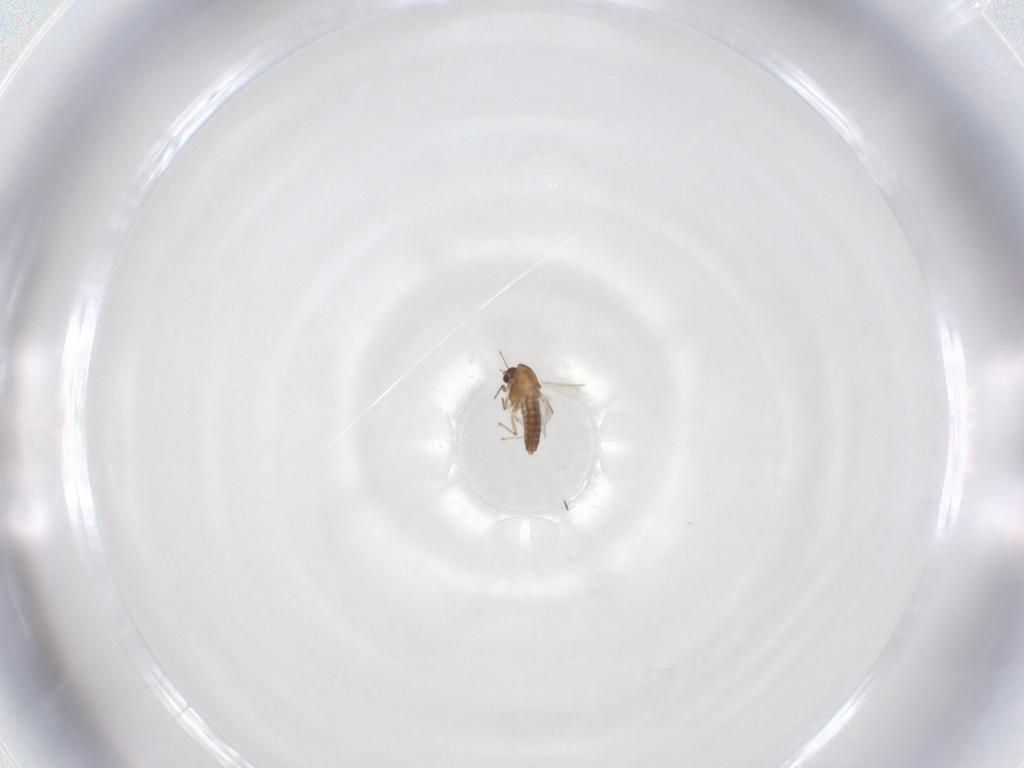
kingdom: Animalia
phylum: Arthropoda
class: Insecta
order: Diptera
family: Chironomidae
